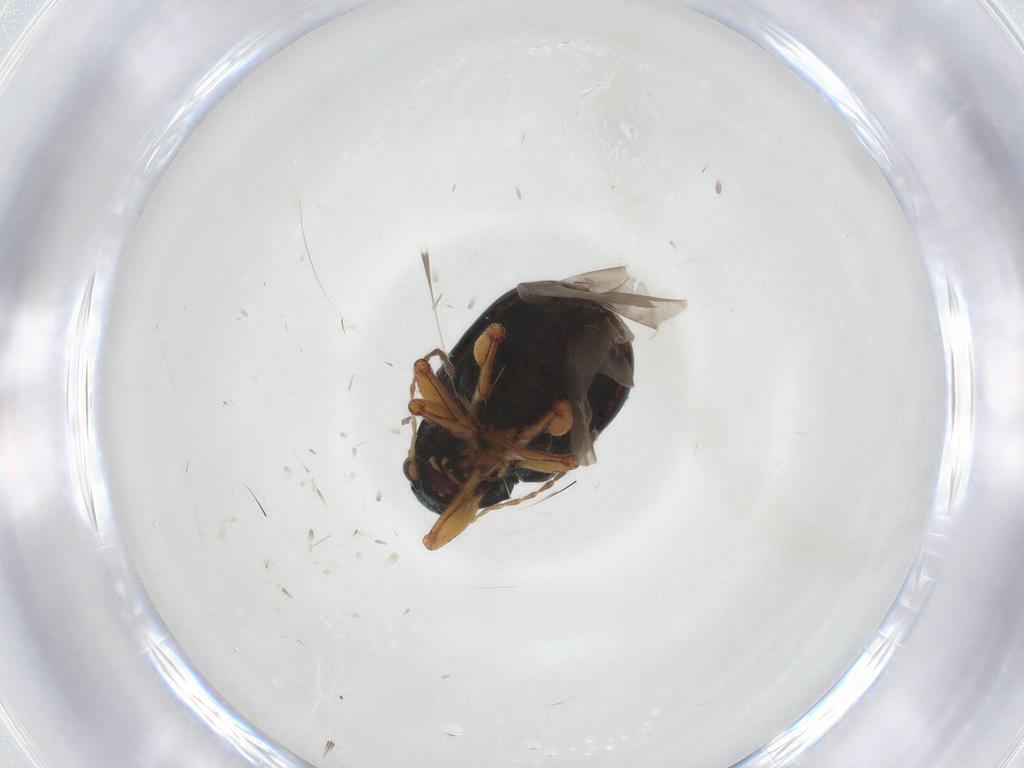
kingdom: Animalia
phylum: Arthropoda
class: Insecta
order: Coleoptera
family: Chrysomelidae
